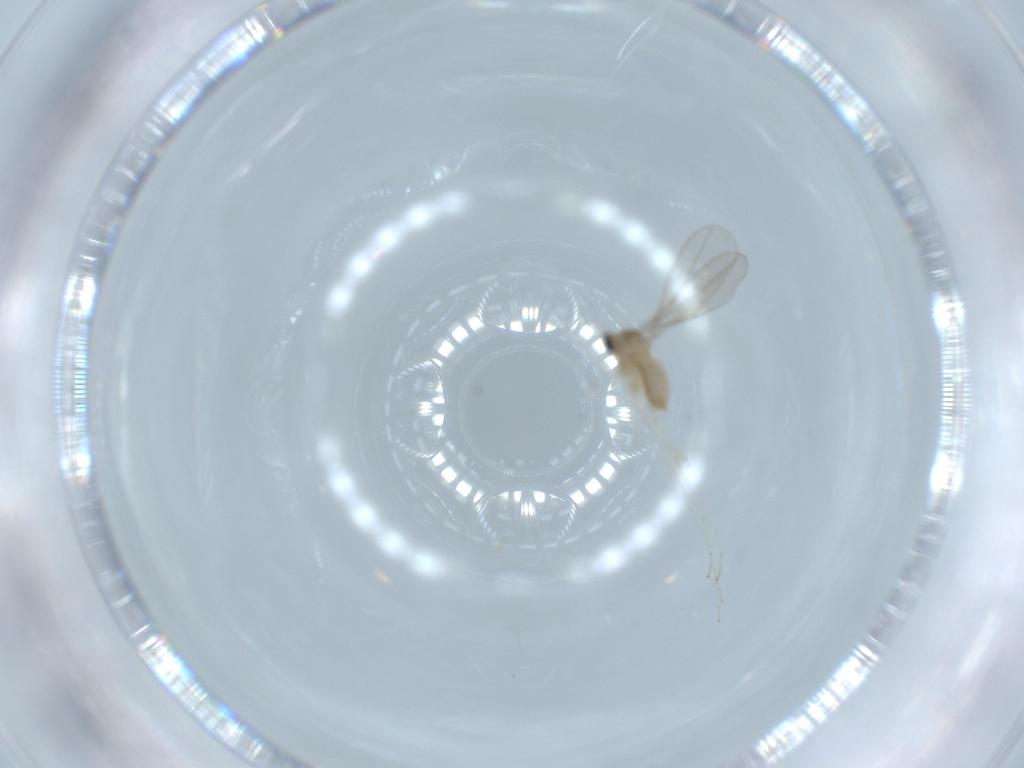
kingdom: Animalia
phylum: Arthropoda
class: Insecta
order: Diptera
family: Cecidomyiidae
